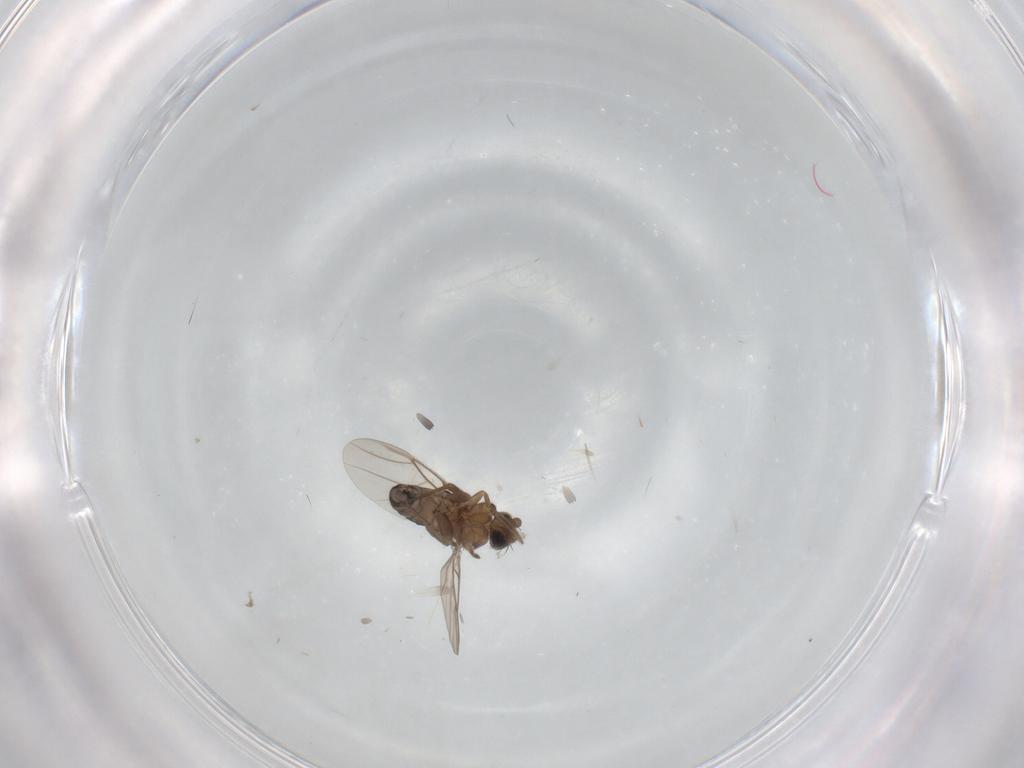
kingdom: Animalia
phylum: Arthropoda
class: Insecta
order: Diptera
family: Phoridae
